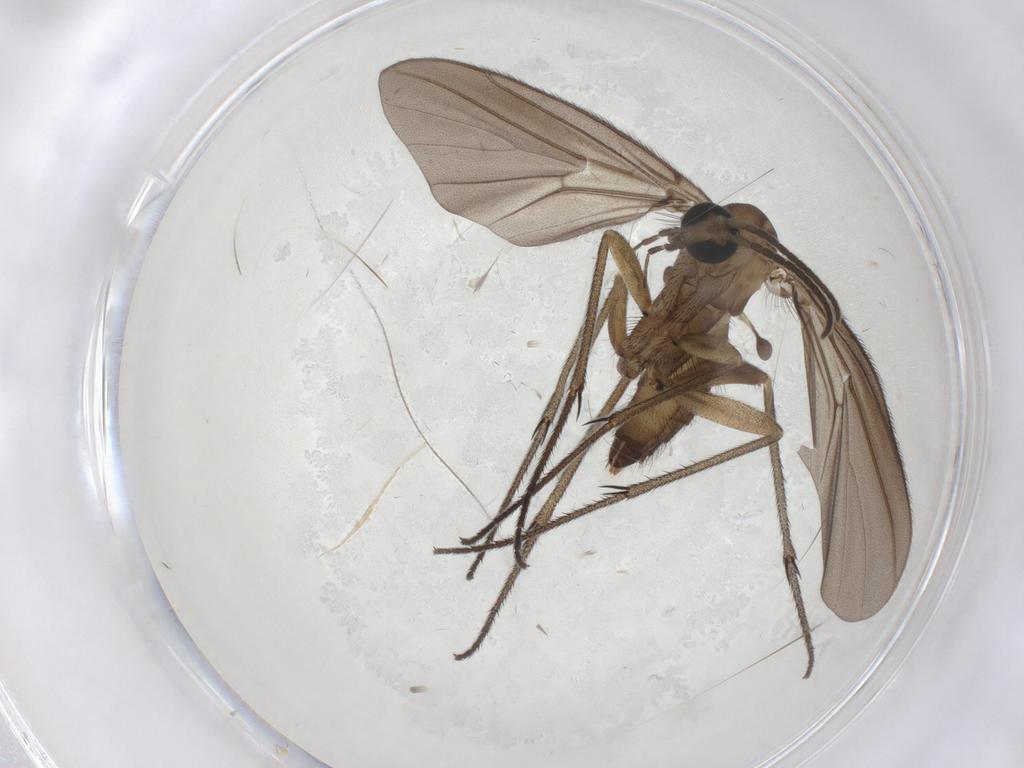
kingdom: Animalia
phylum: Arthropoda
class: Insecta
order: Diptera
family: Diadocidiidae
